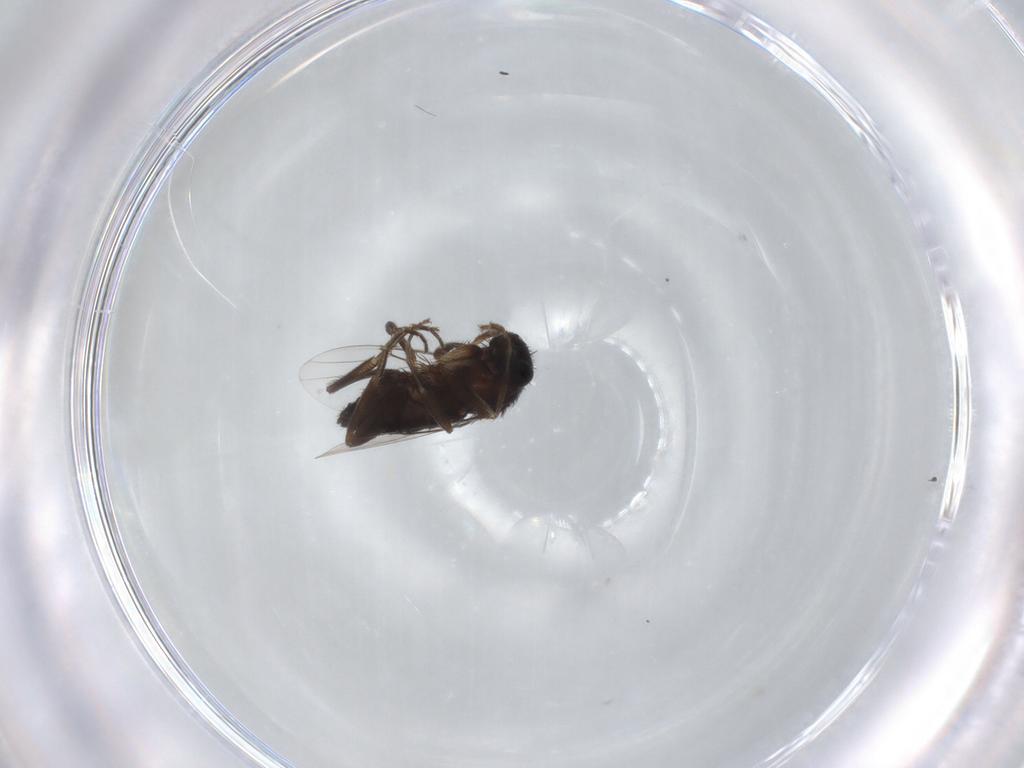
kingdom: Animalia
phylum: Arthropoda
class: Insecta
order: Diptera
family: Phoridae
